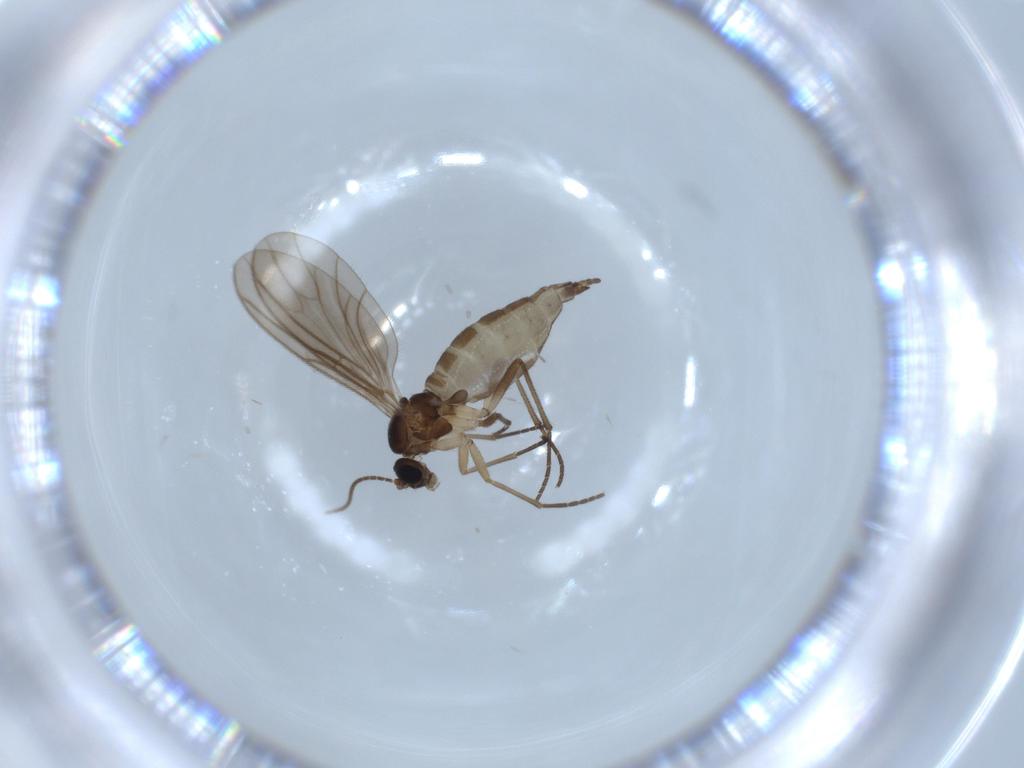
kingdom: Animalia
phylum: Arthropoda
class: Insecta
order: Diptera
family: Sciaridae
